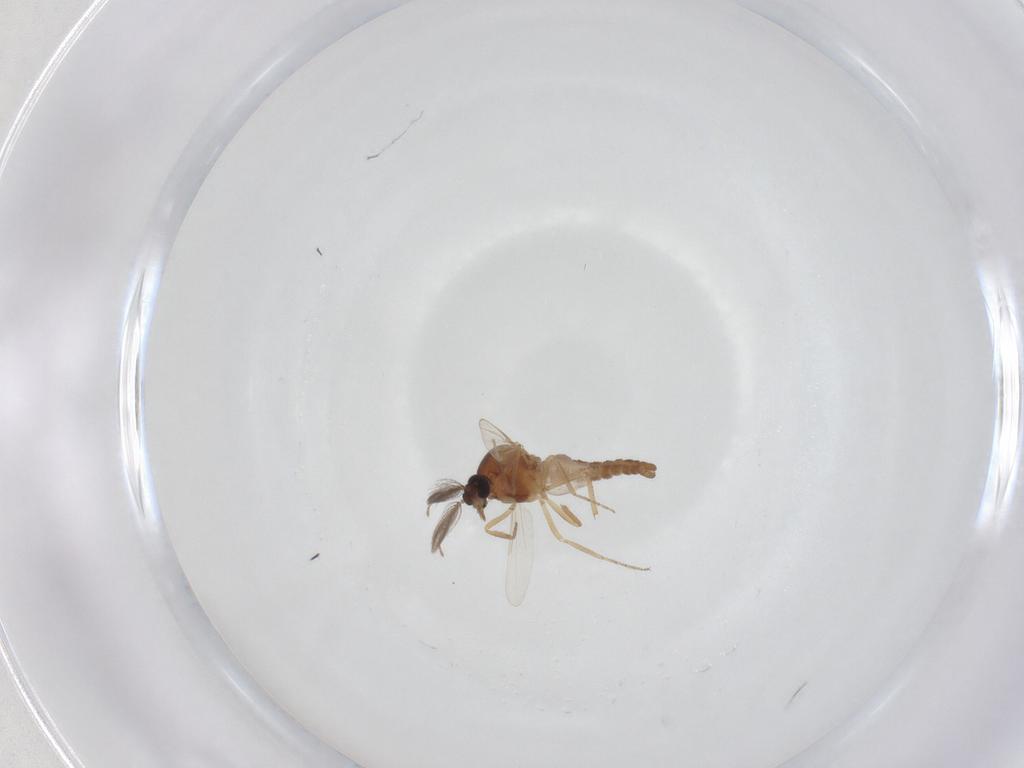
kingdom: Animalia
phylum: Arthropoda
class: Insecta
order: Diptera
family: Ceratopogonidae
